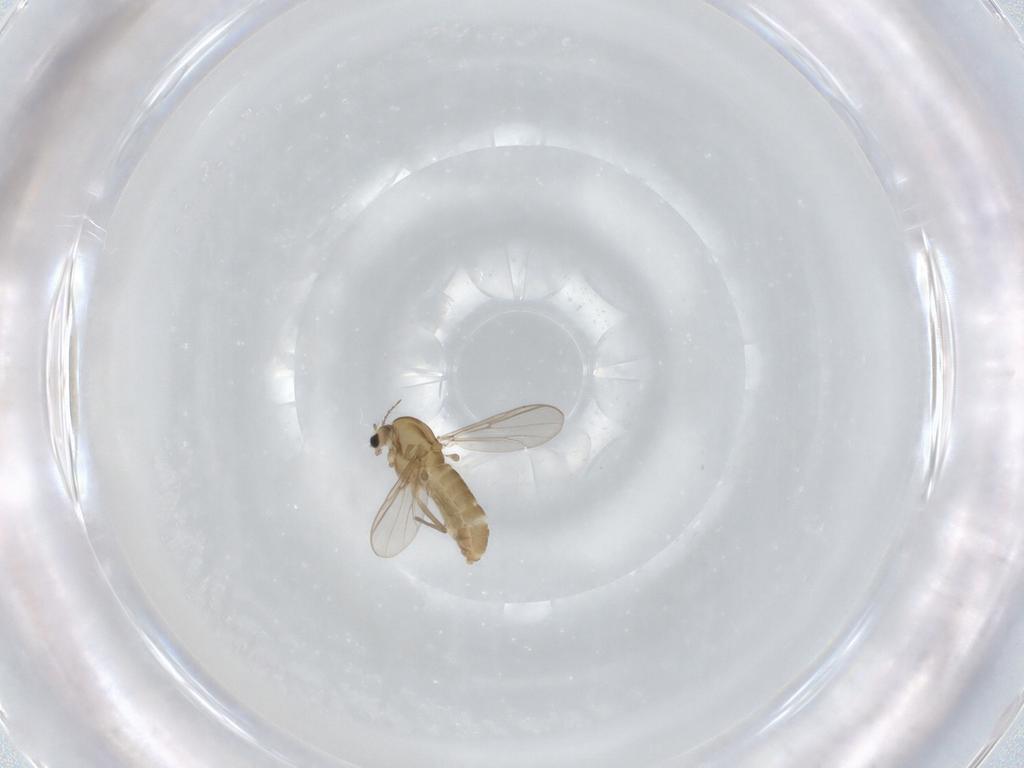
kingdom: Animalia
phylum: Arthropoda
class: Insecta
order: Diptera
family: Chironomidae
